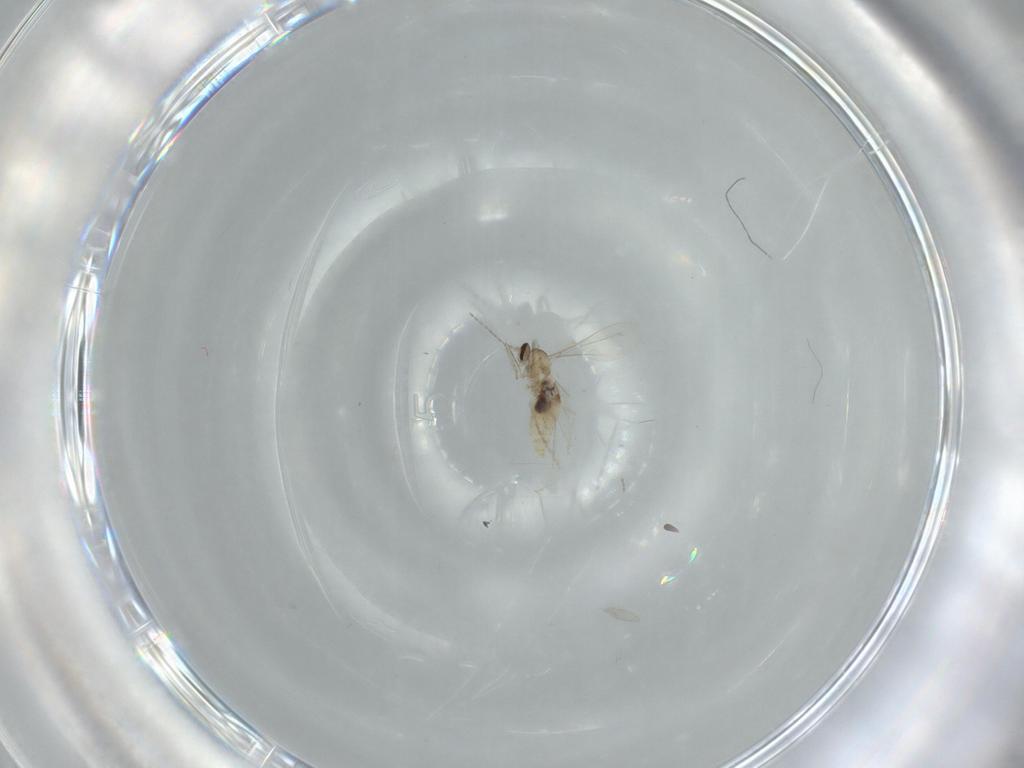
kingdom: Animalia
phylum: Arthropoda
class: Insecta
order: Diptera
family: Cecidomyiidae
